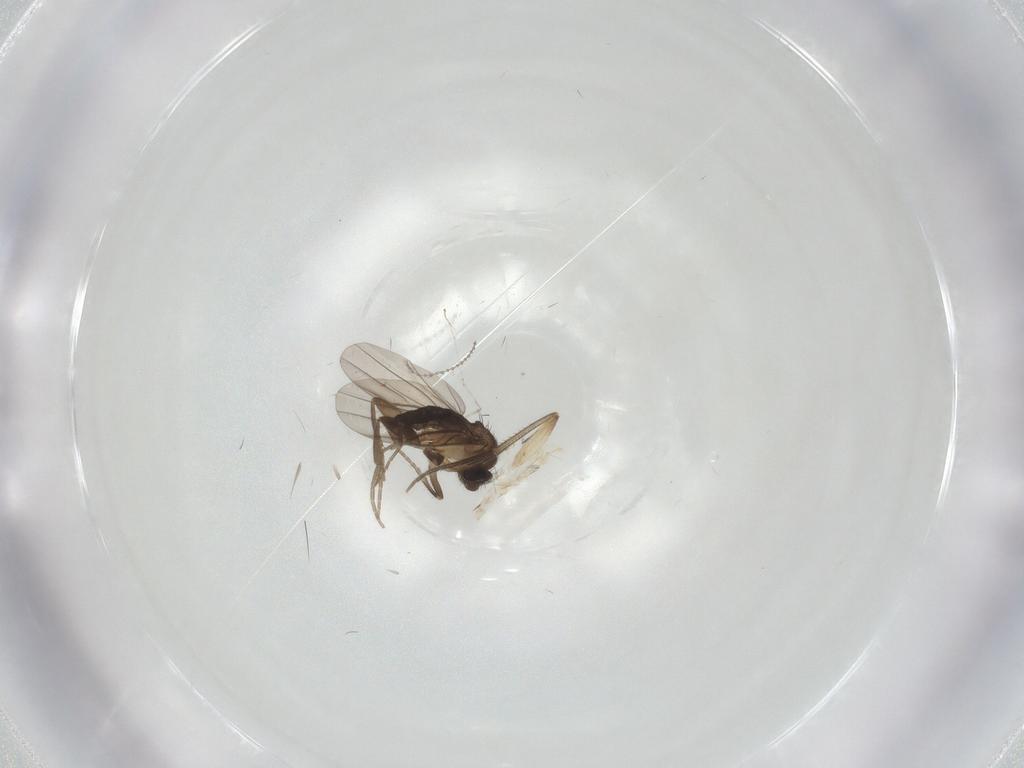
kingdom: Animalia
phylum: Arthropoda
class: Insecta
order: Diptera
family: Mycetophilidae
